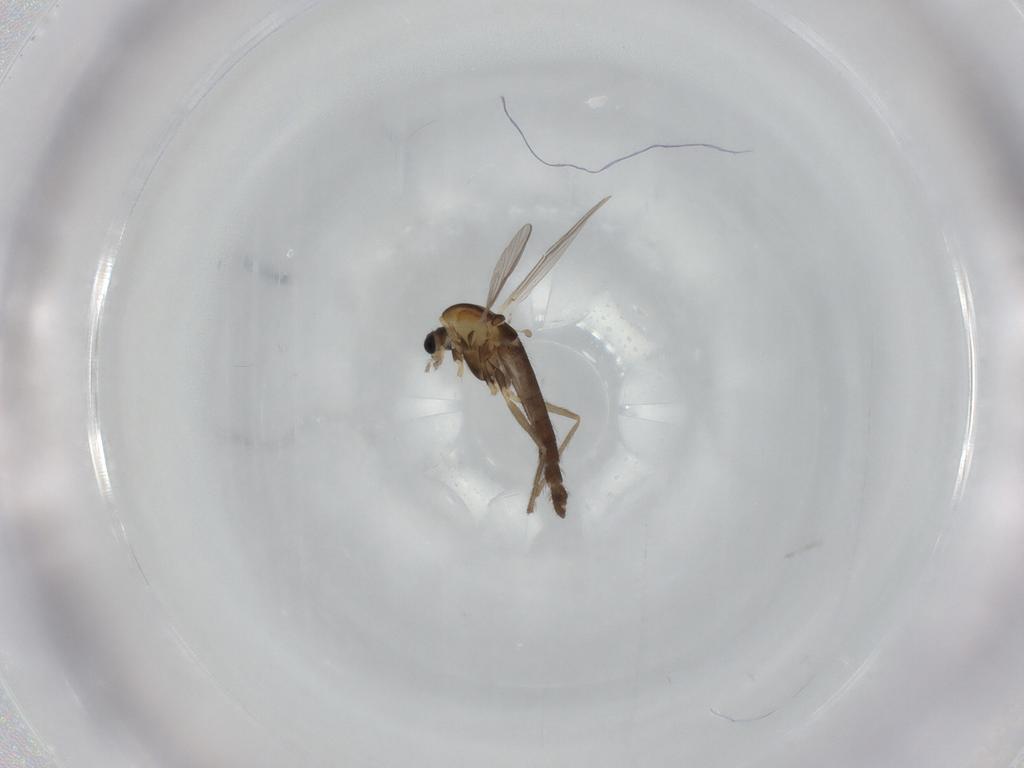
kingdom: Animalia
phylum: Arthropoda
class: Insecta
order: Diptera
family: Chironomidae
